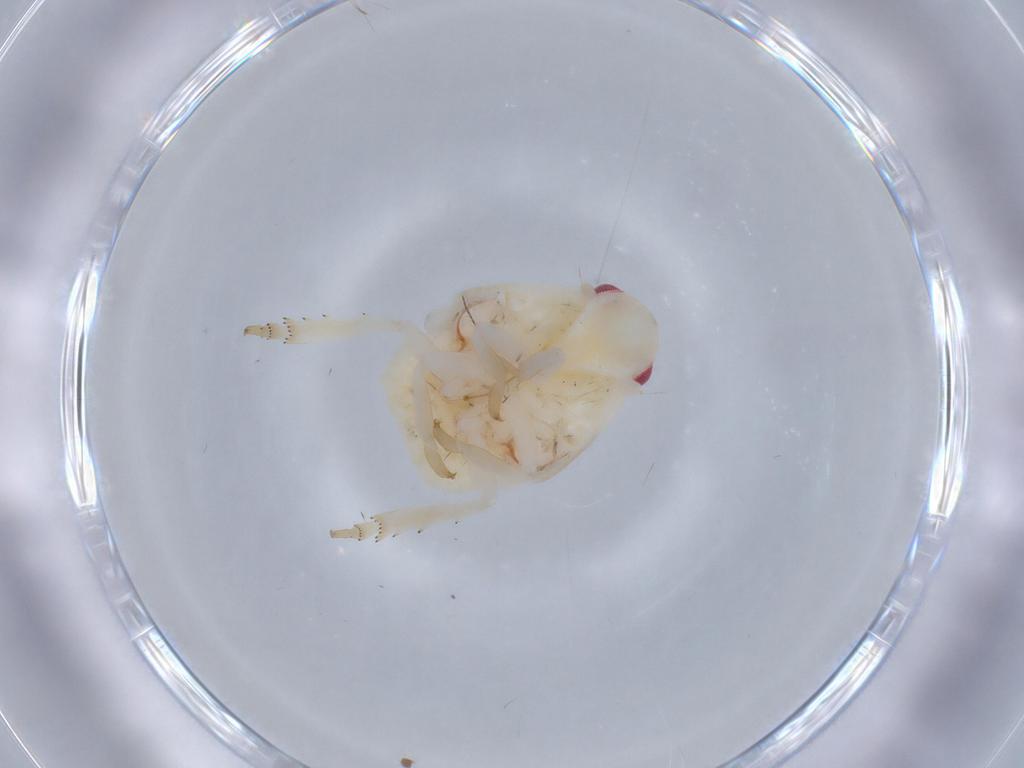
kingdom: Animalia
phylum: Arthropoda
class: Insecta
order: Hemiptera
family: Flatidae
